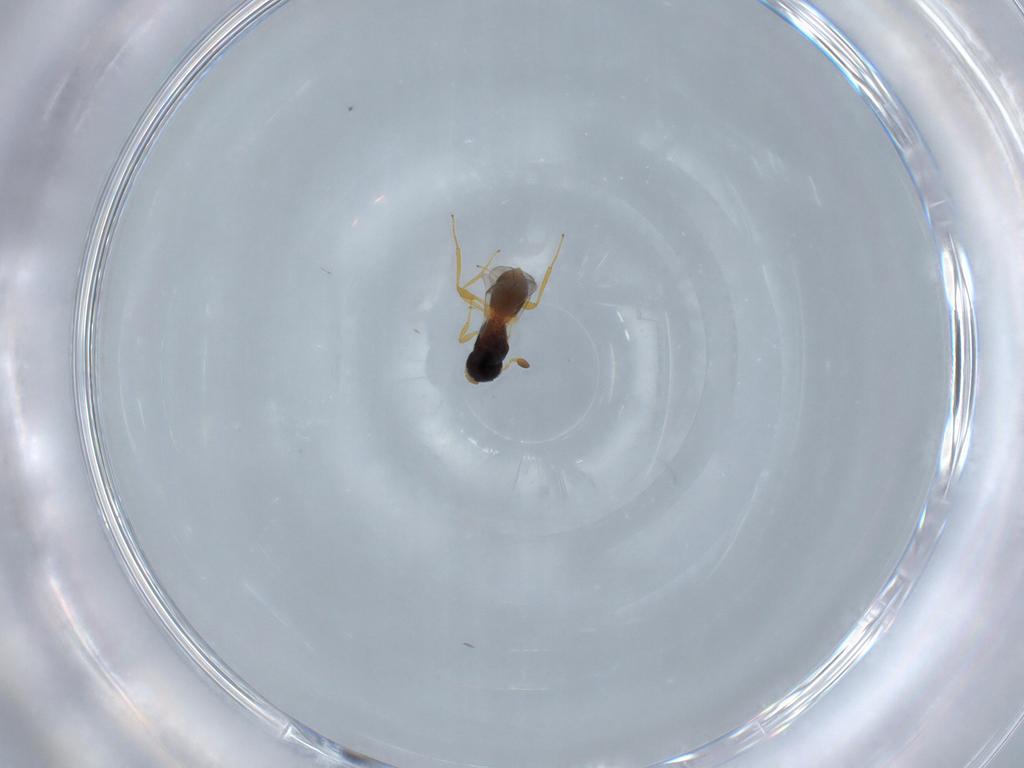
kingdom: Animalia
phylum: Arthropoda
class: Insecta
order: Hymenoptera
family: Platygastridae
